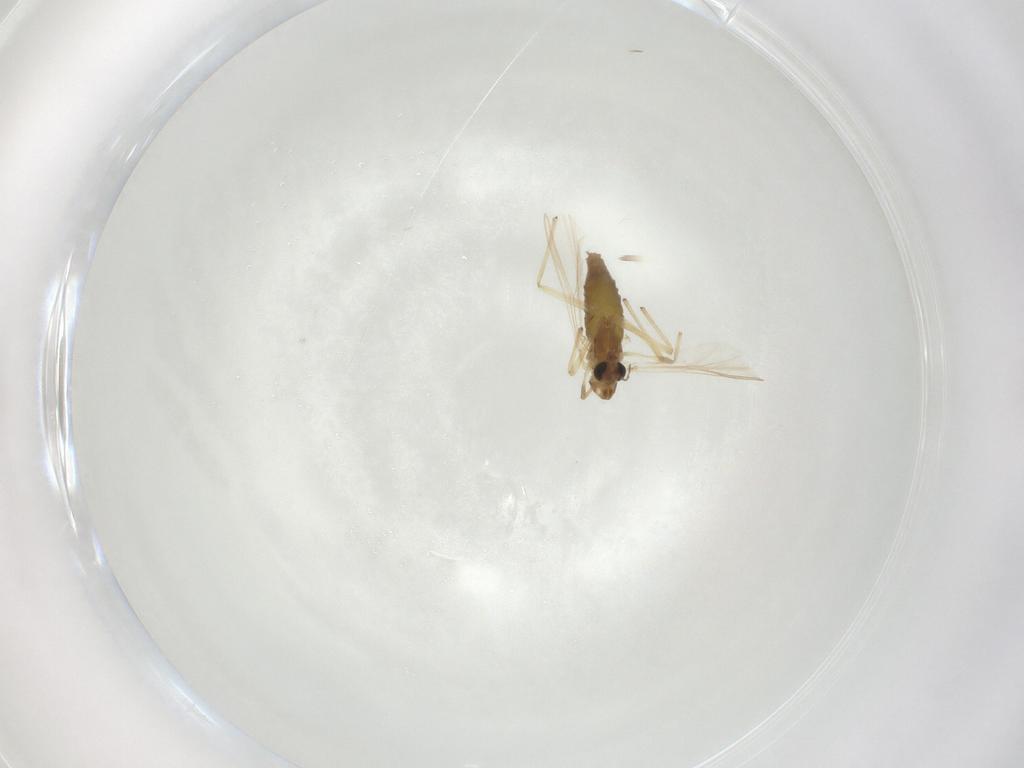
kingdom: Animalia
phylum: Arthropoda
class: Insecta
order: Diptera
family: Chironomidae
